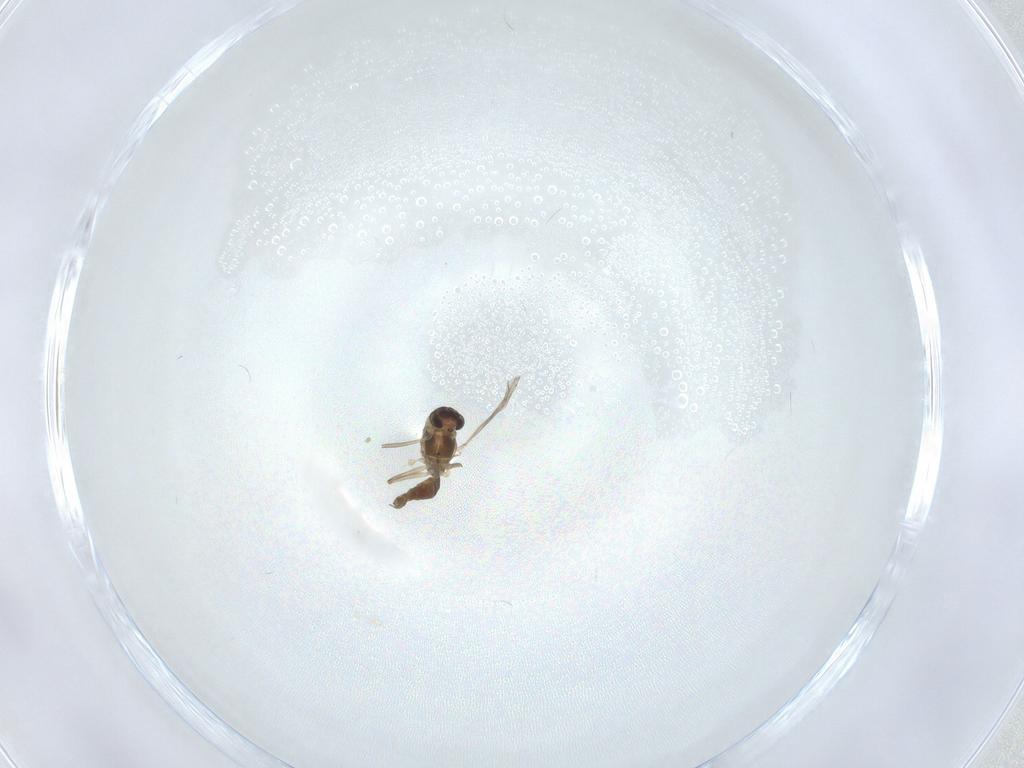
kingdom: Animalia
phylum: Arthropoda
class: Insecta
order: Diptera
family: Chironomidae
